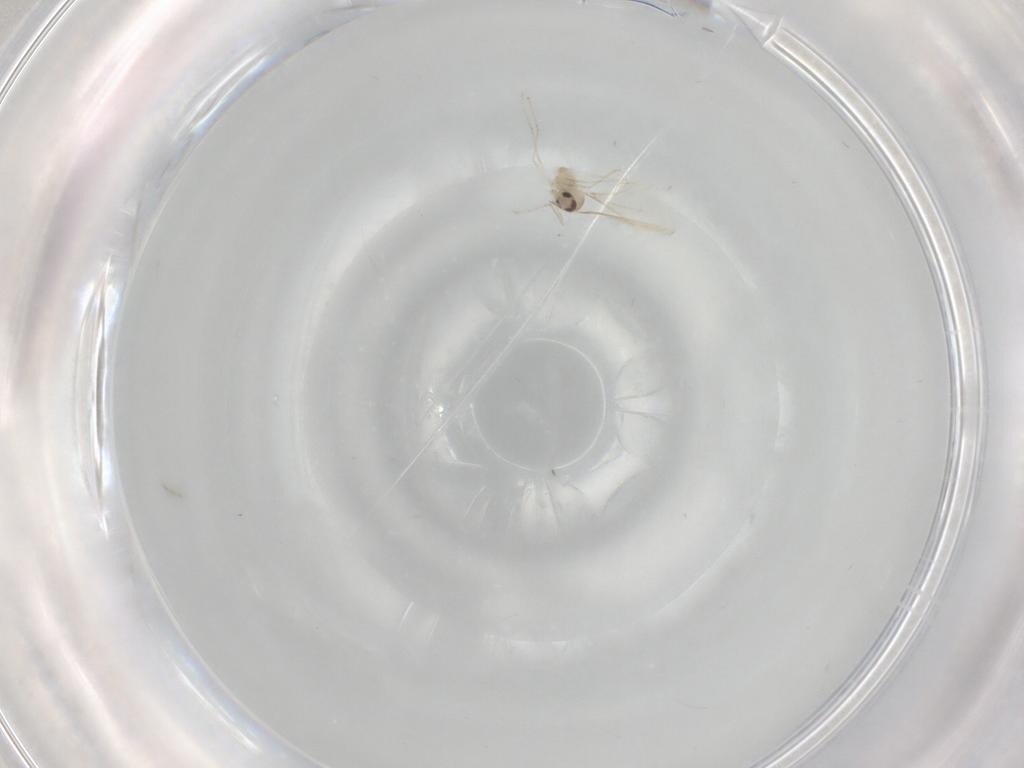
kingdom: Animalia
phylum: Arthropoda
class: Insecta
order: Diptera
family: Cecidomyiidae
